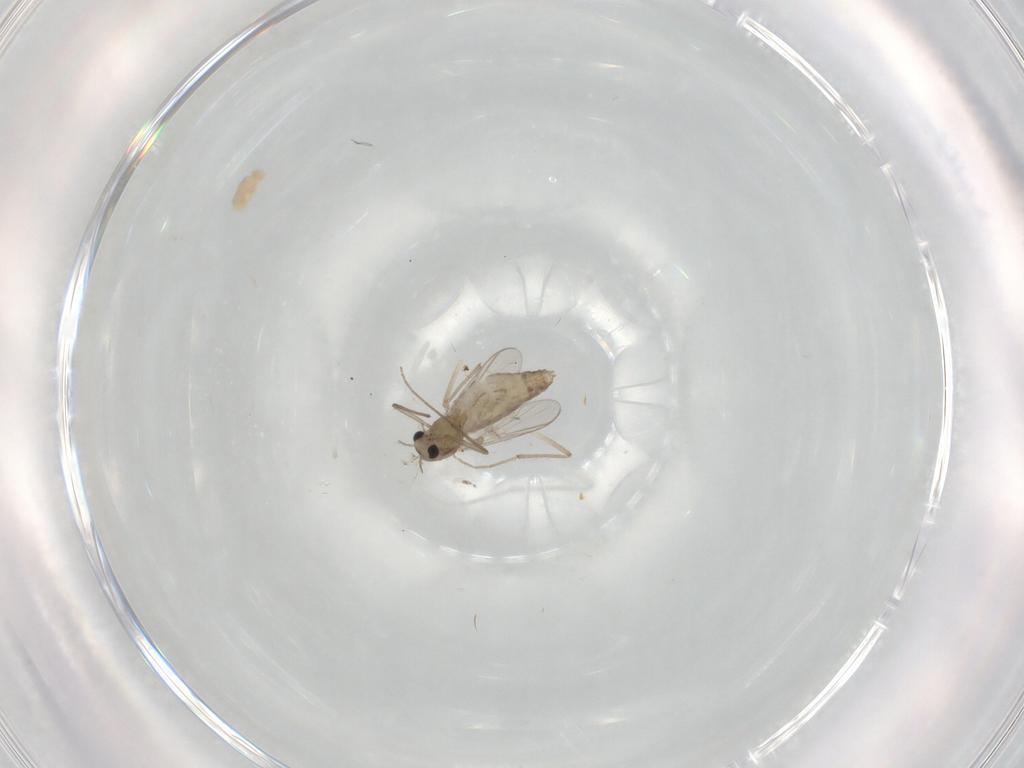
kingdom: Animalia
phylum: Arthropoda
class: Insecta
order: Diptera
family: Chironomidae
